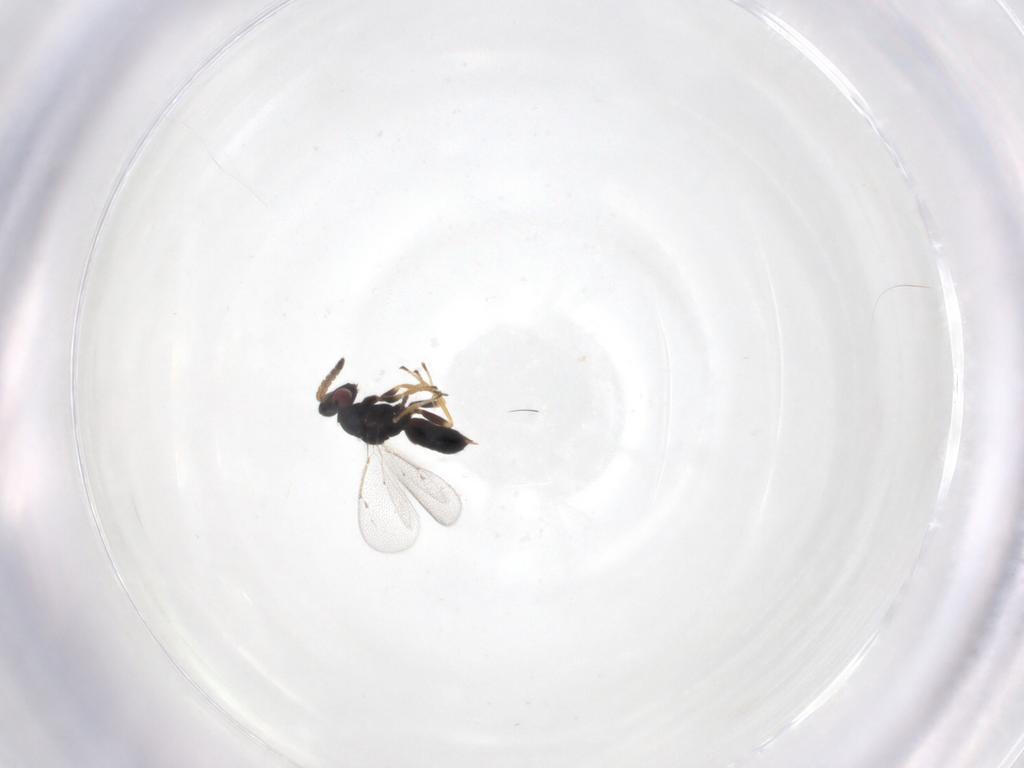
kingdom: Animalia
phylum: Arthropoda
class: Insecta
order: Hymenoptera
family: Eulophidae
